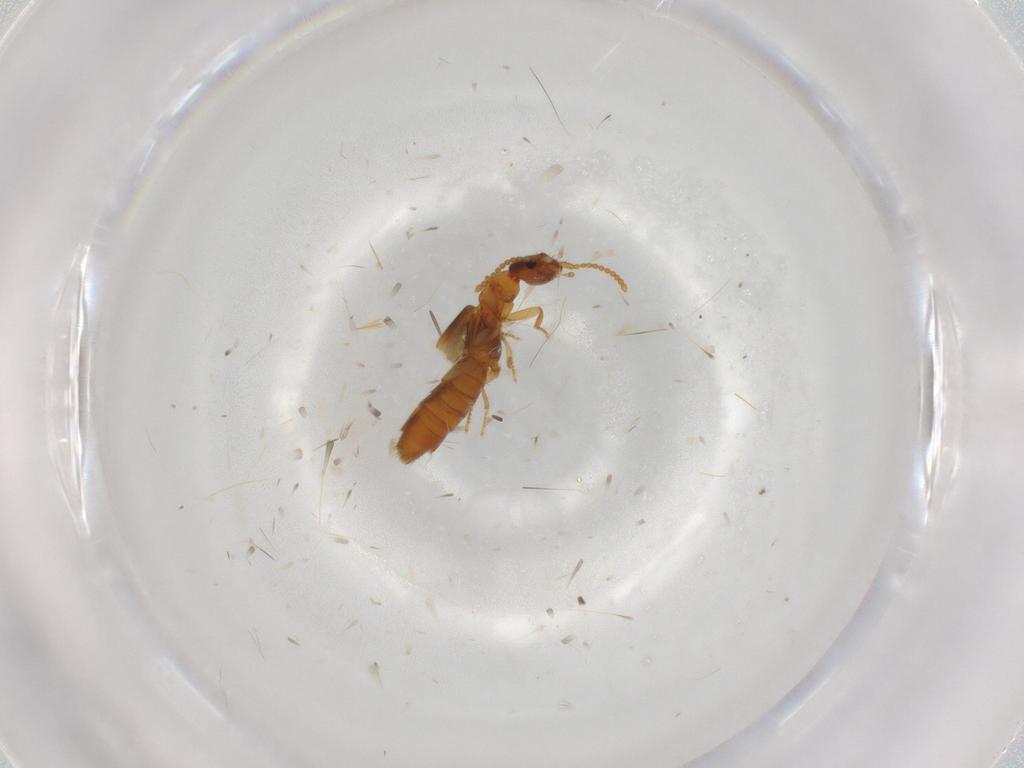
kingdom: Animalia
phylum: Arthropoda
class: Insecta
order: Coleoptera
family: Staphylinidae
